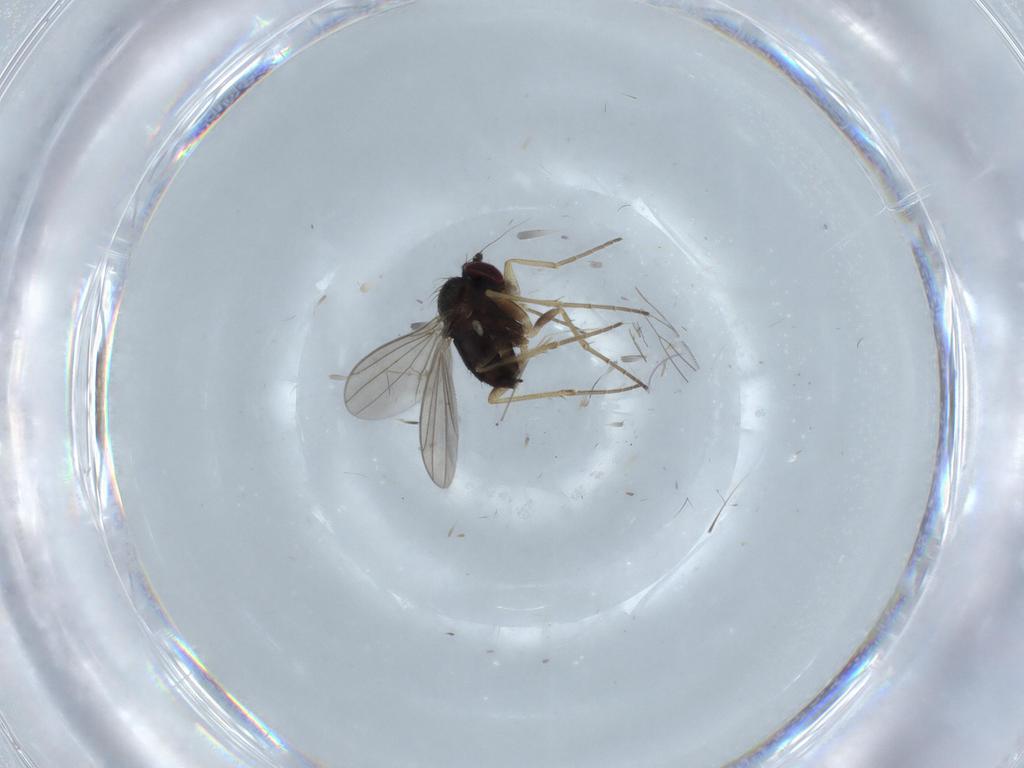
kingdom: Animalia
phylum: Arthropoda
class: Insecta
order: Diptera
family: Dolichopodidae
